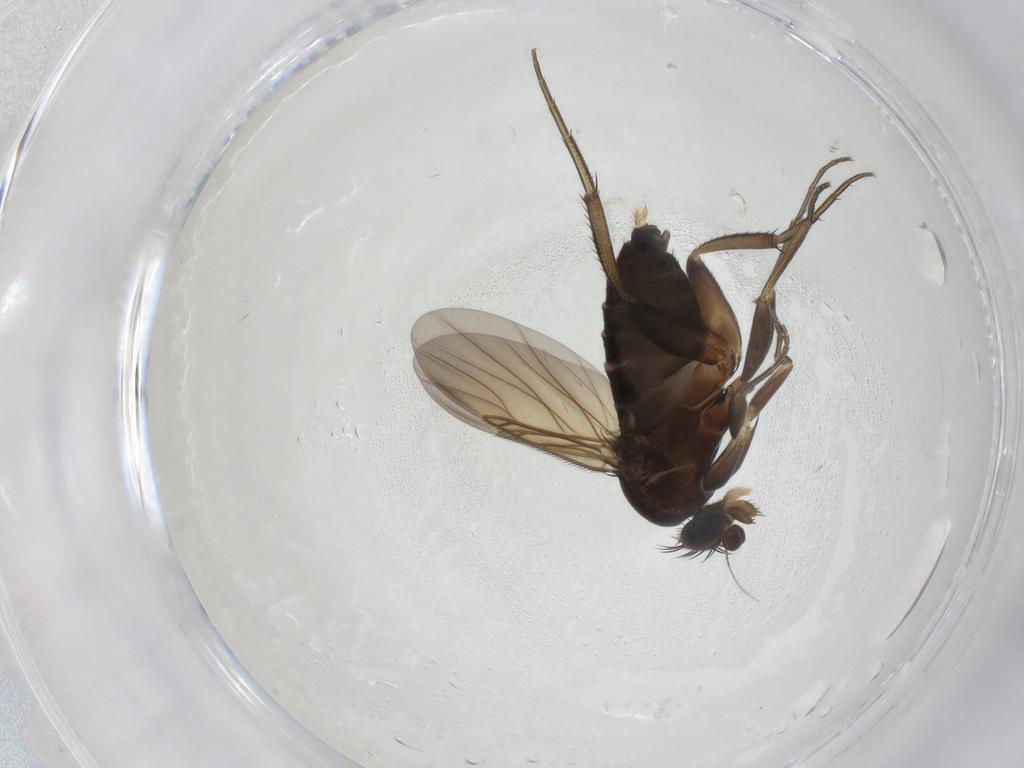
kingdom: Animalia
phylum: Arthropoda
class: Insecta
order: Diptera
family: Phoridae
